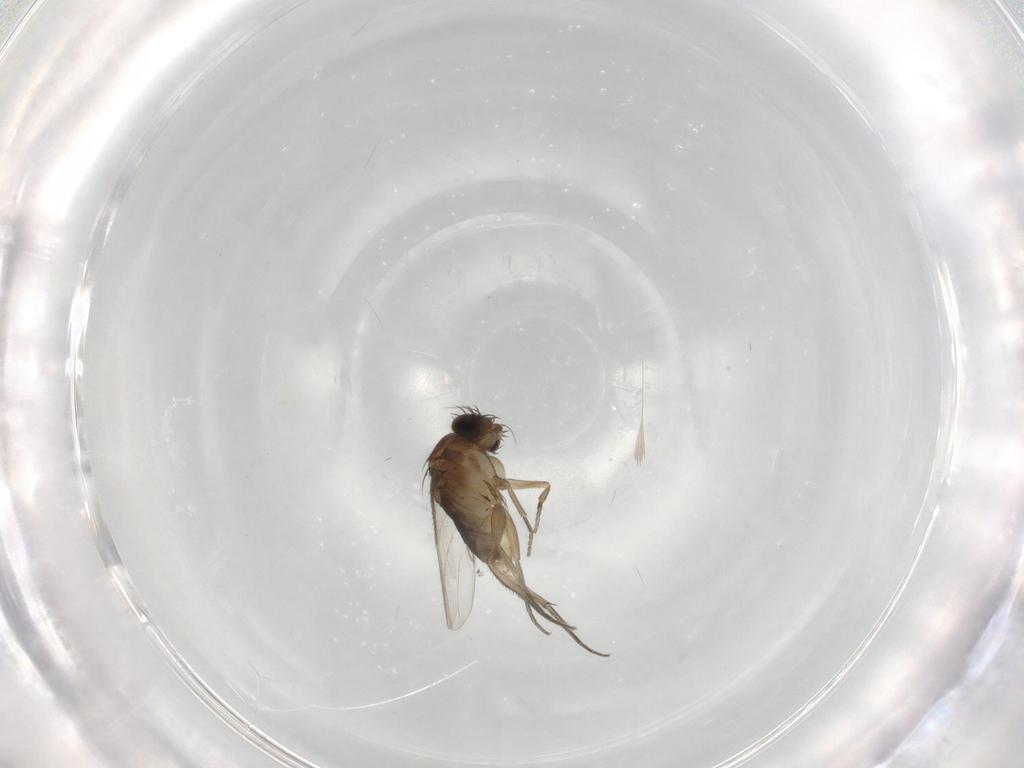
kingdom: Animalia
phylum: Arthropoda
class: Insecta
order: Diptera
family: Phoridae
